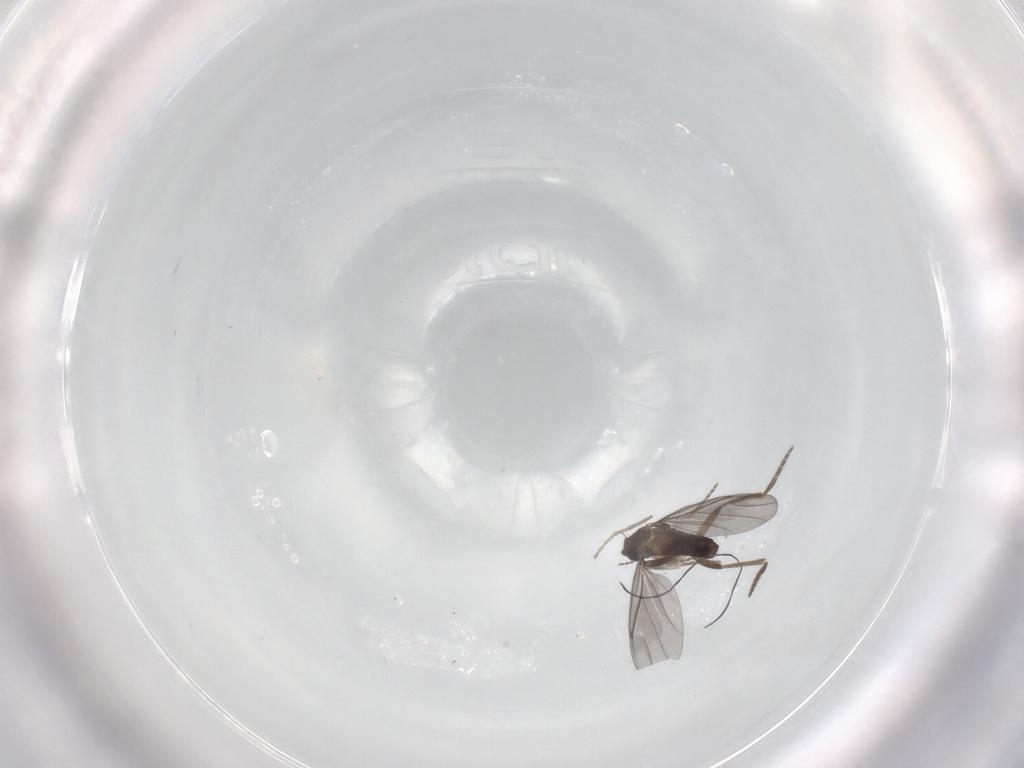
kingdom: Animalia
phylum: Arthropoda
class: Insecta
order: Diptera
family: Phoridae
